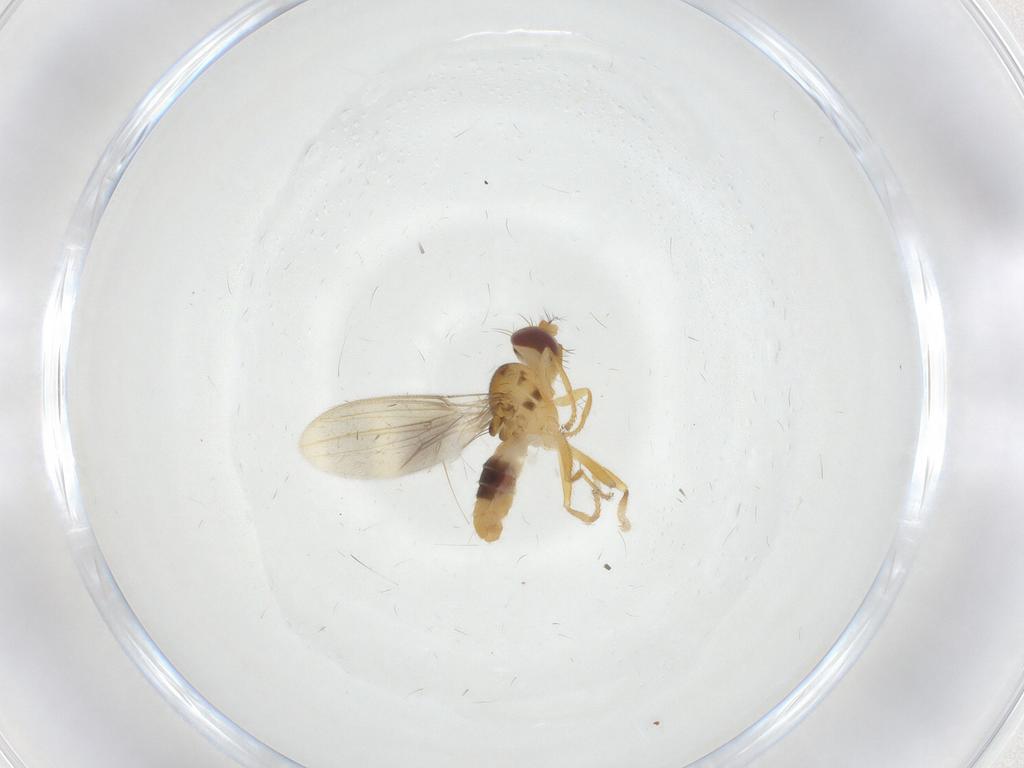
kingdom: Animalia
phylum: Arthropoda
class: Insecta
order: Diptera
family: Periscelididae
